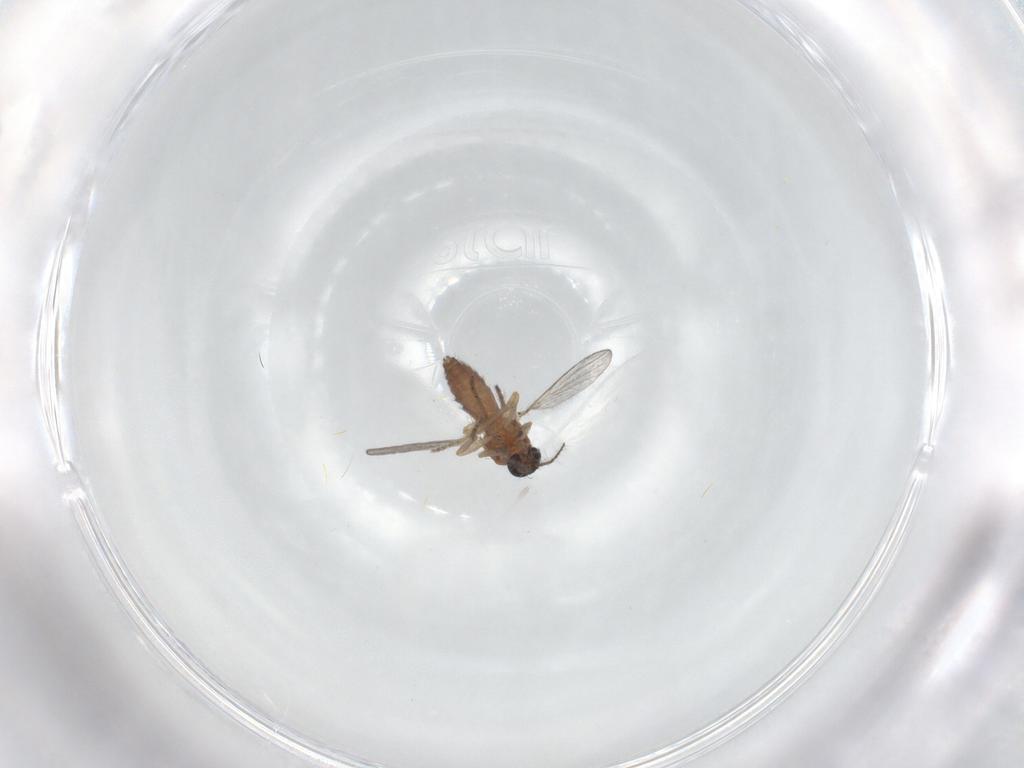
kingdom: Animalia
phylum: Arthropoda
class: Insecta
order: Diptera
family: Ceratopogonidae
